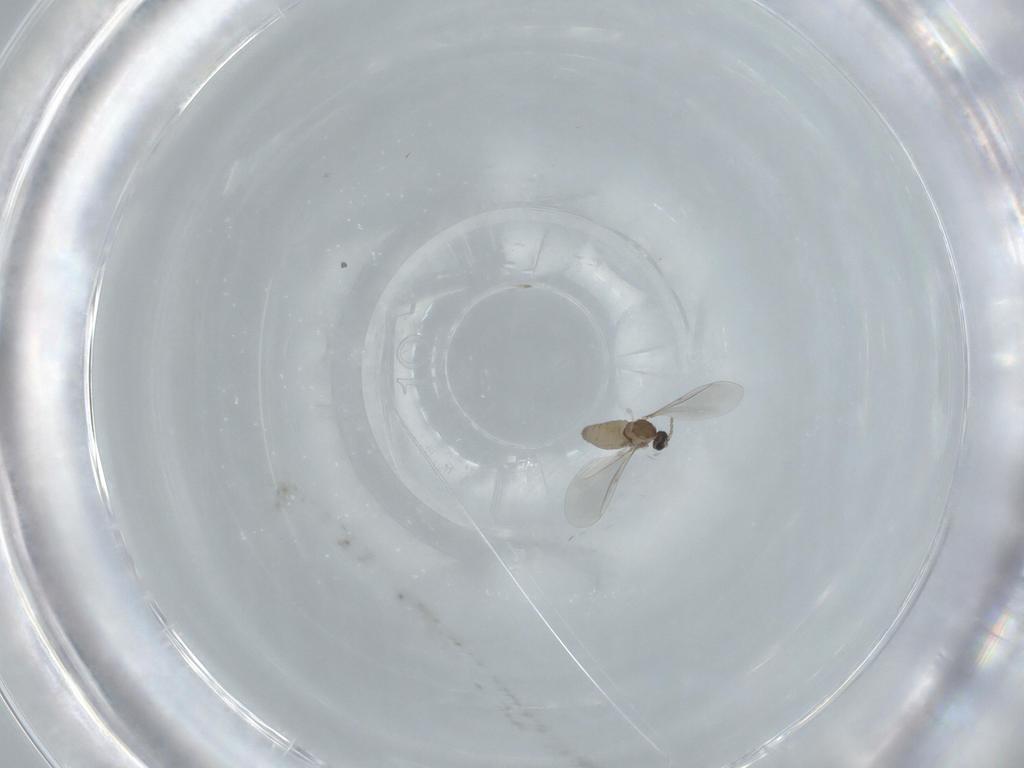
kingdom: Animalia
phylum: Arthropoda
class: Insecta
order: Diptera
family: Cecidomyiidae
